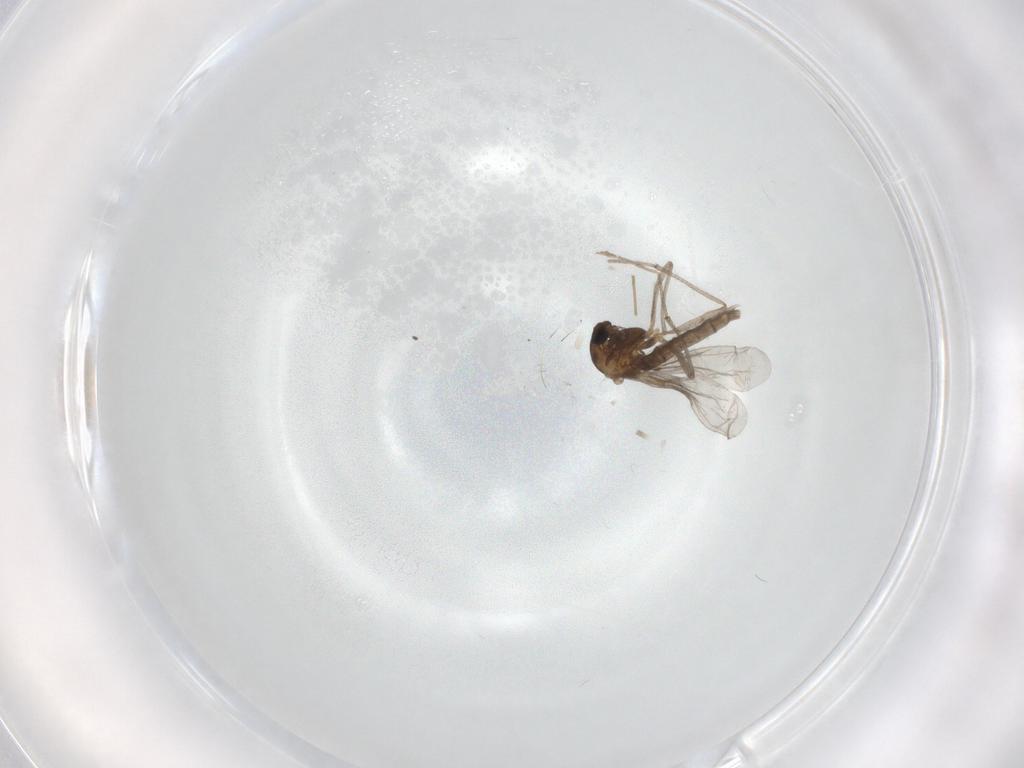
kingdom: Animalia
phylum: Arthropoda
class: Insecta
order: Diptera
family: Chironomidae
